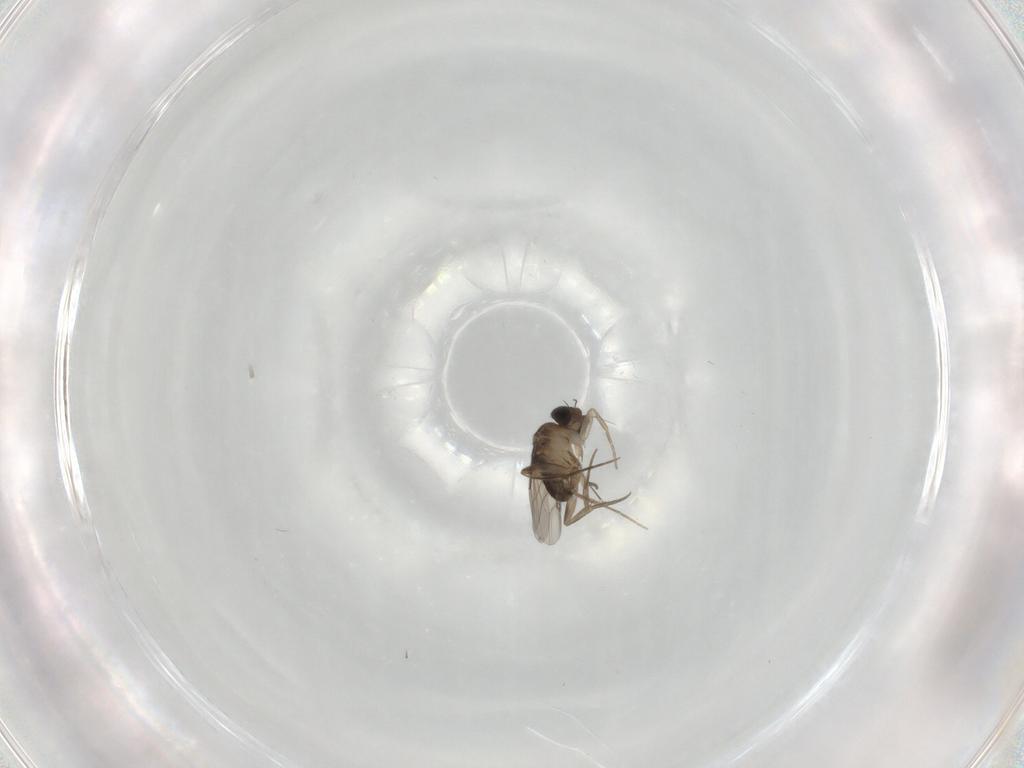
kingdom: Animalia
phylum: Arthropoda
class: Insecta
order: Diptera
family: Phoridae
